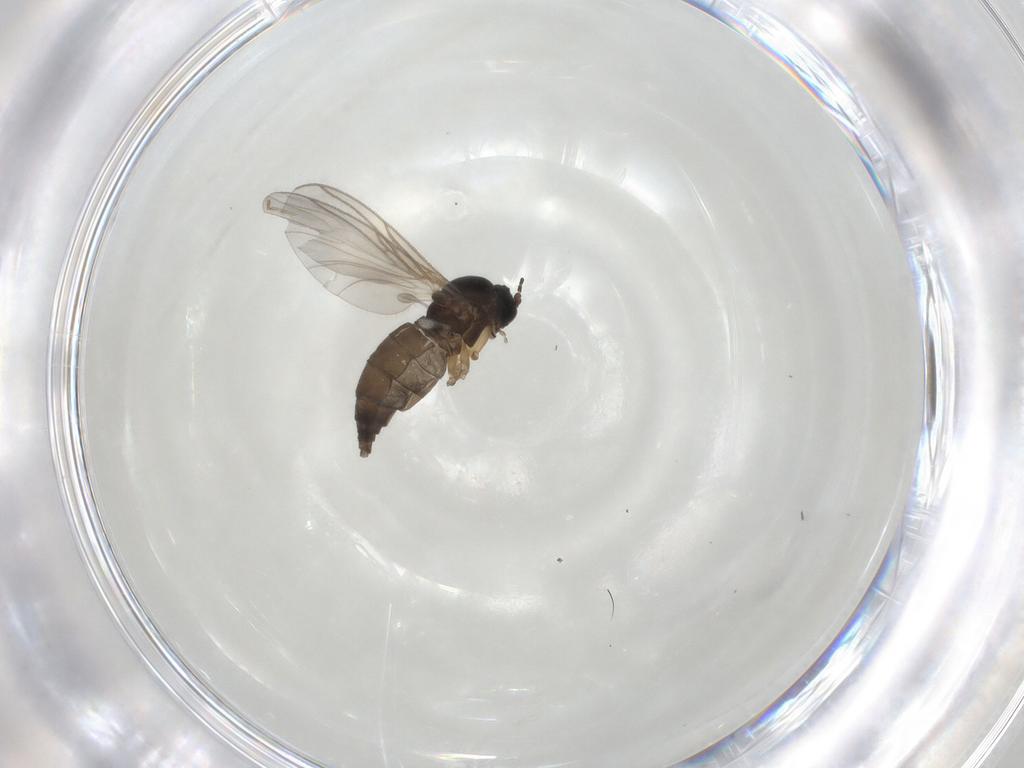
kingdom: Animalia
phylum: Arthropoda
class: Insecta
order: Diptera
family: Sciaridae
